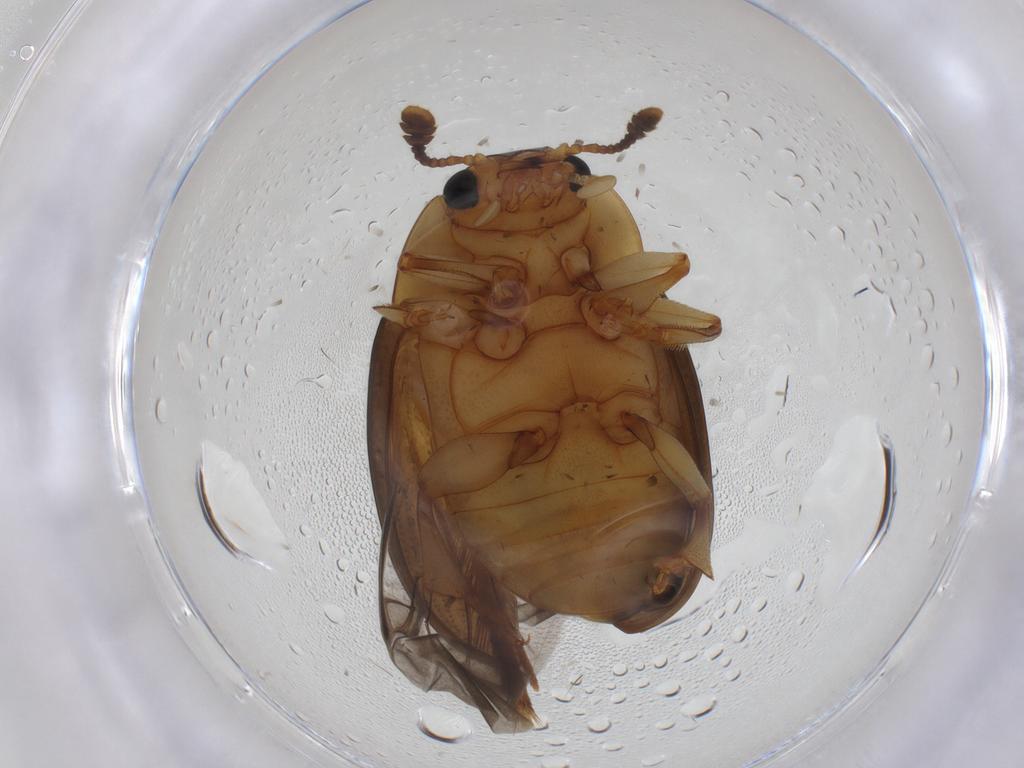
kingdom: Animalia
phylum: Arthropoda
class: Insecta
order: Coleoptera
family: Erotylidae
